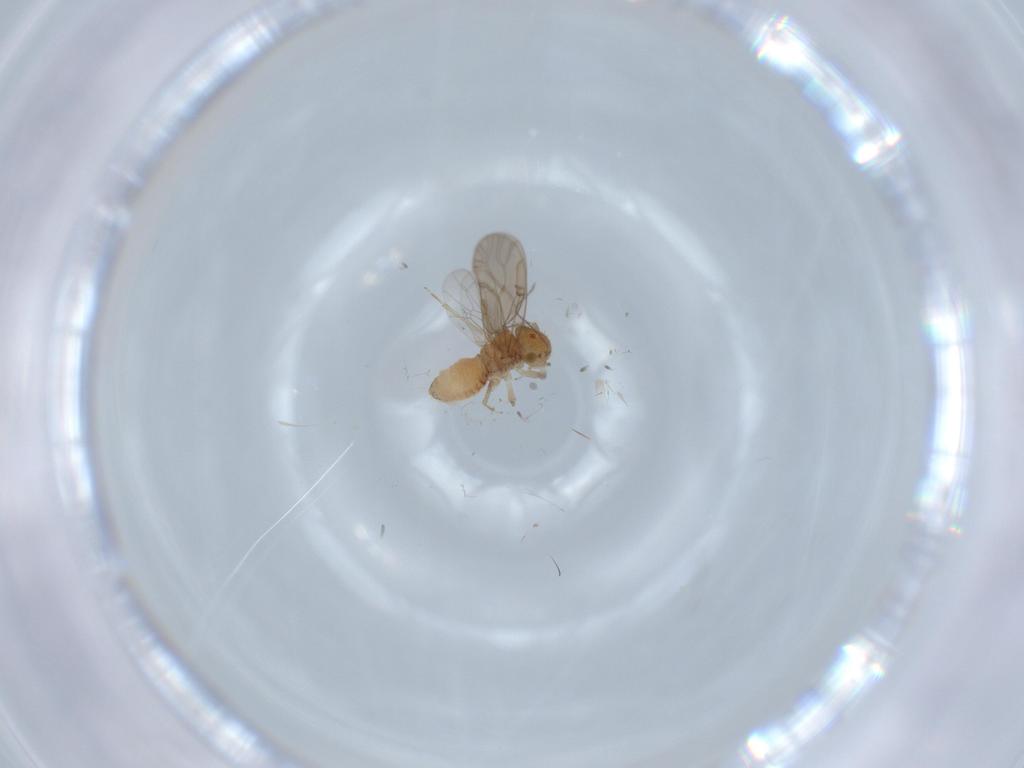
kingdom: Animalia
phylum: Arthropoda
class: Insecta
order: Psocodea
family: Ectopsocidae
